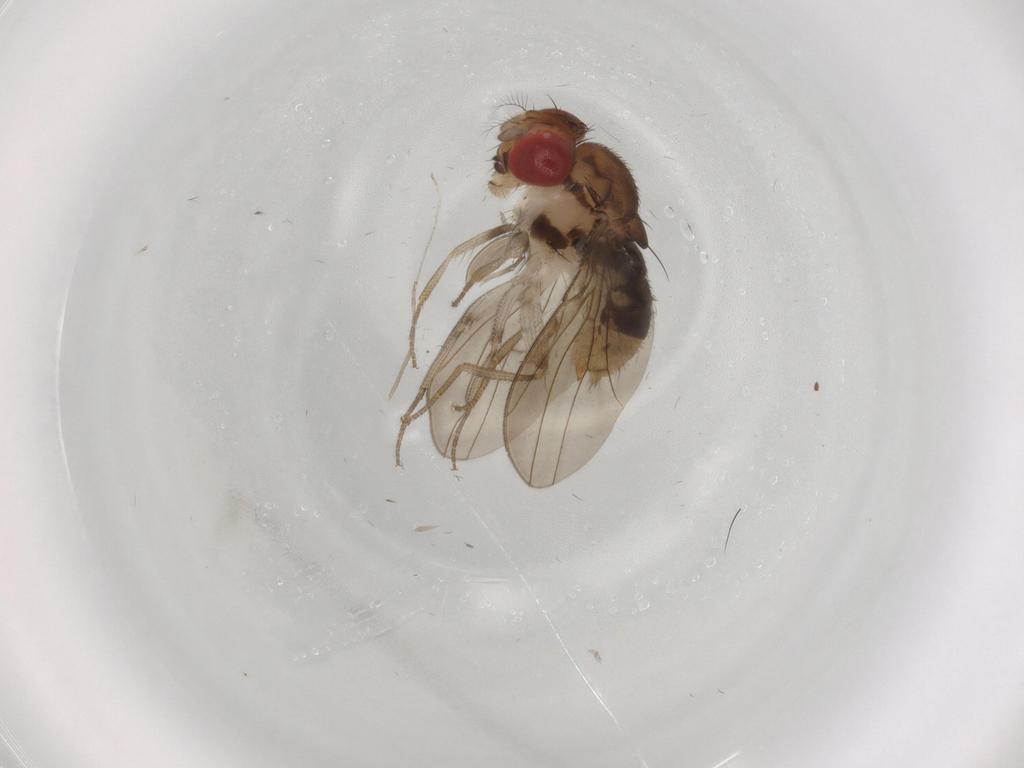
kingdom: Animalia
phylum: Arthropoda
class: Insecta
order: Diptera
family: Drosophilidae
